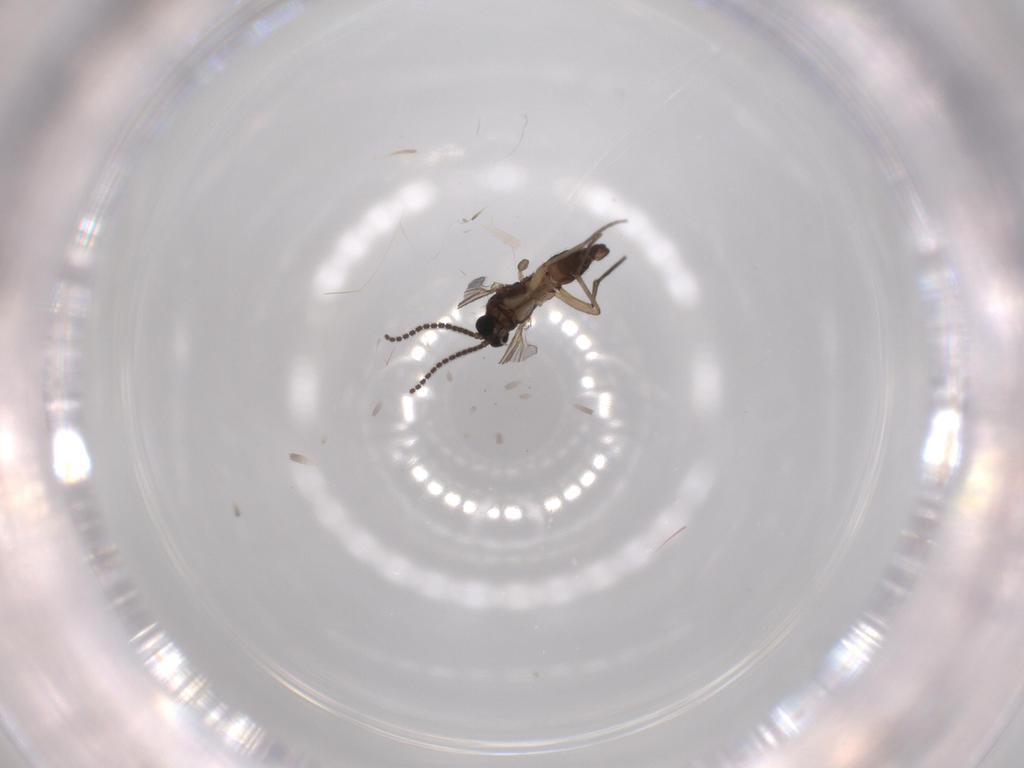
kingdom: Animalia
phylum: Arthropoda
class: Insecta
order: Diptera
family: Sciaridae
